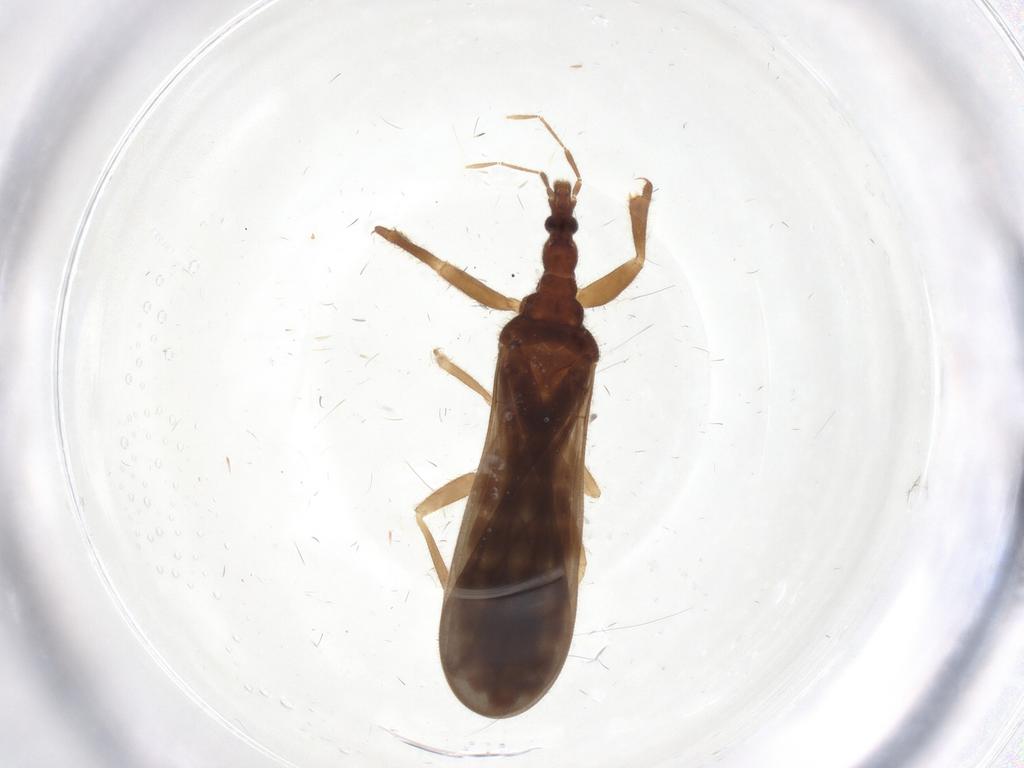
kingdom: Animalia
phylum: Arthropoda
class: Insecta
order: Hemiptera
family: Enicocephalidae
